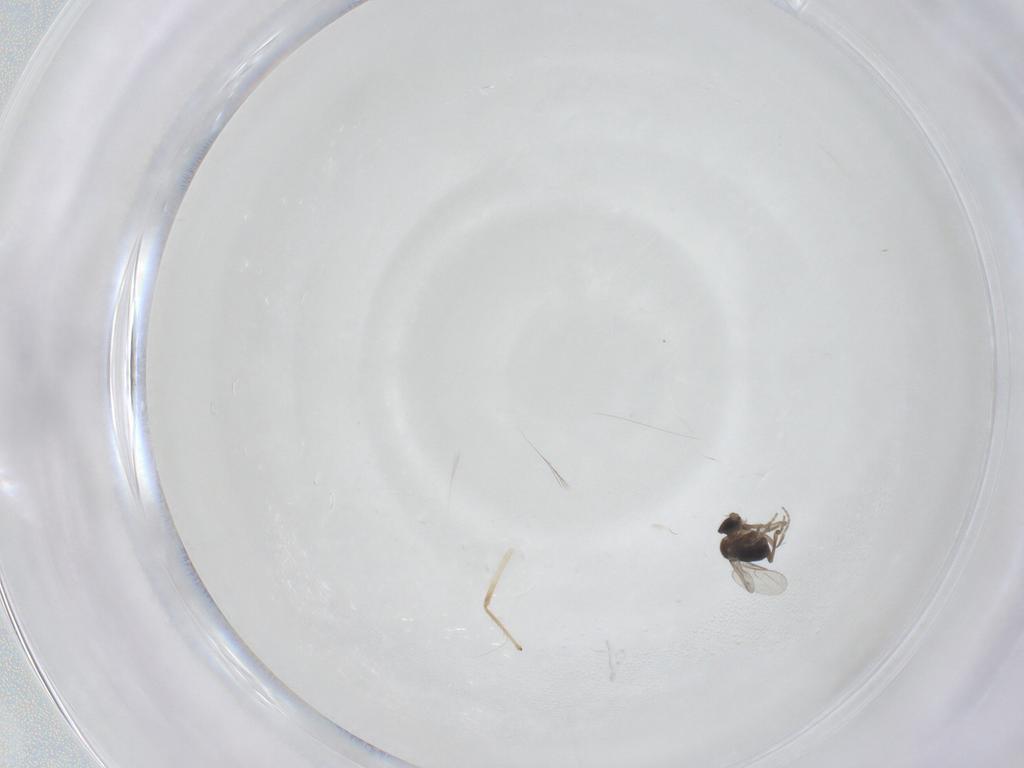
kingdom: Animalia
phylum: Arthropoda
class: Insecta
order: Diptera
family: Phoridae
